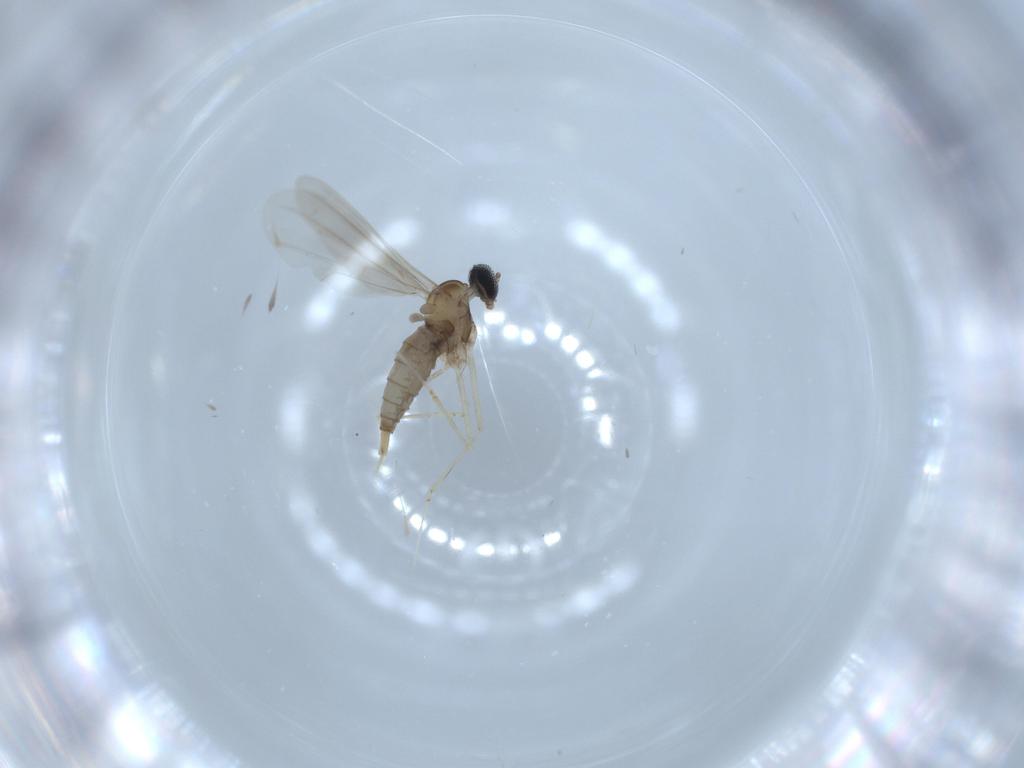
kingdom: Animalia
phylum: Arthropoda
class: Insecta
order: Diptera
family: Cecidomyiidae
